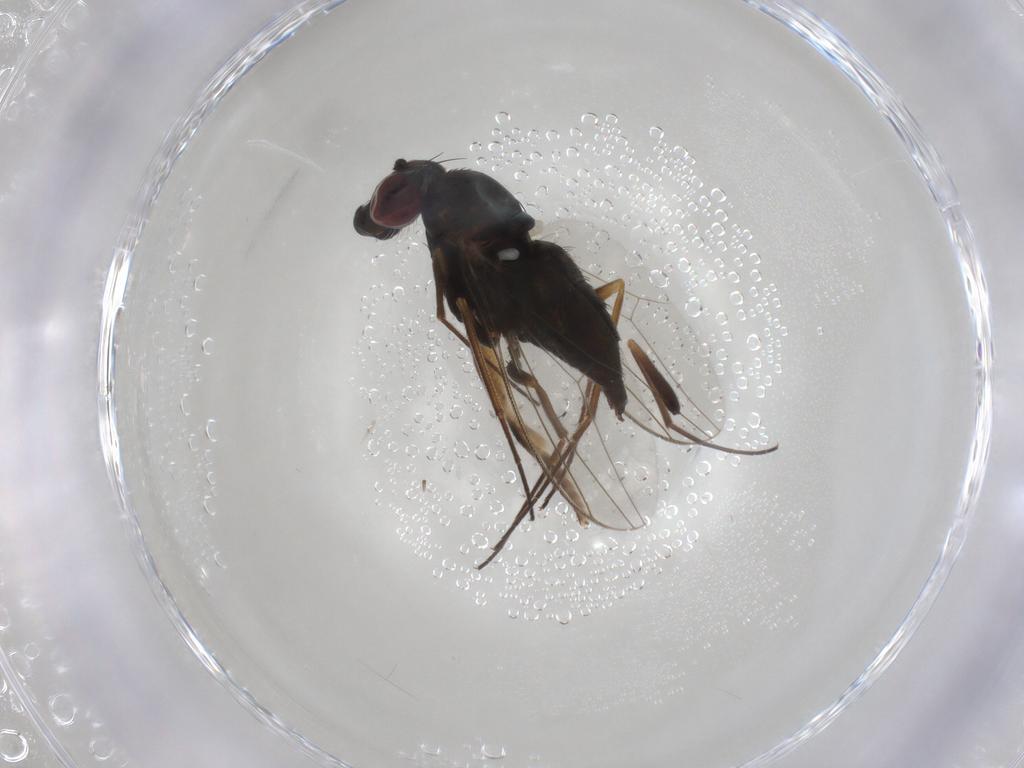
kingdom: Animalia
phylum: Arthropoda
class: Insecta
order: Diptera
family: Dolichopodidae
